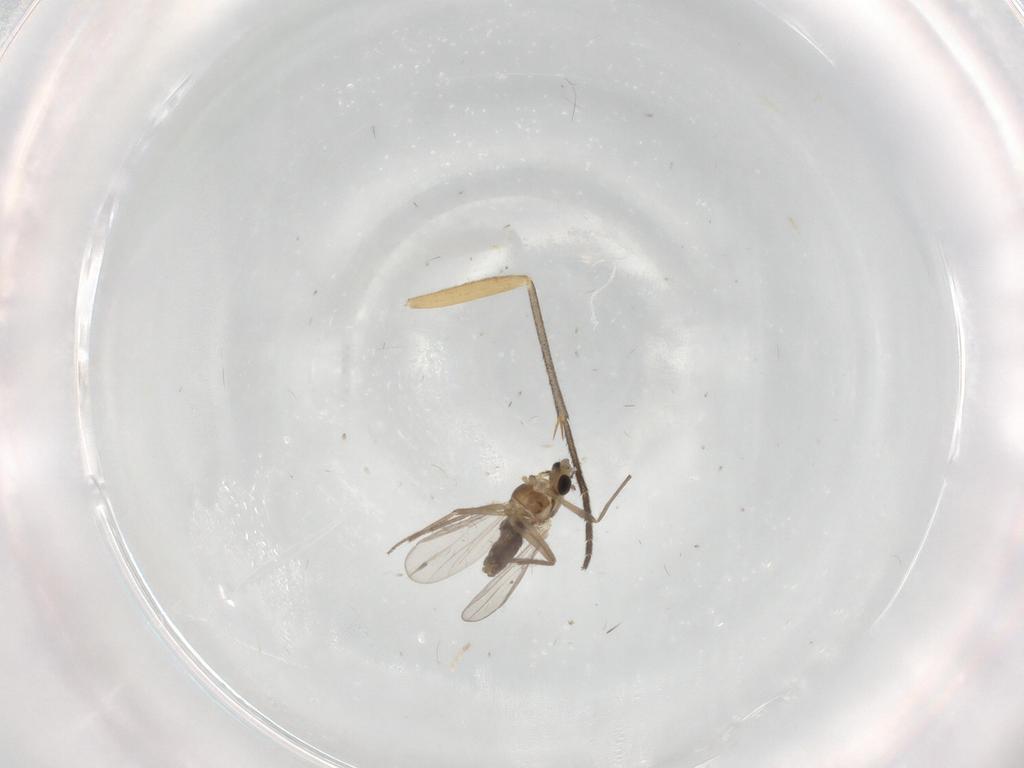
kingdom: Animalia
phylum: Arthropoda
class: Insecta
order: Diptera
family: Chironomidae
